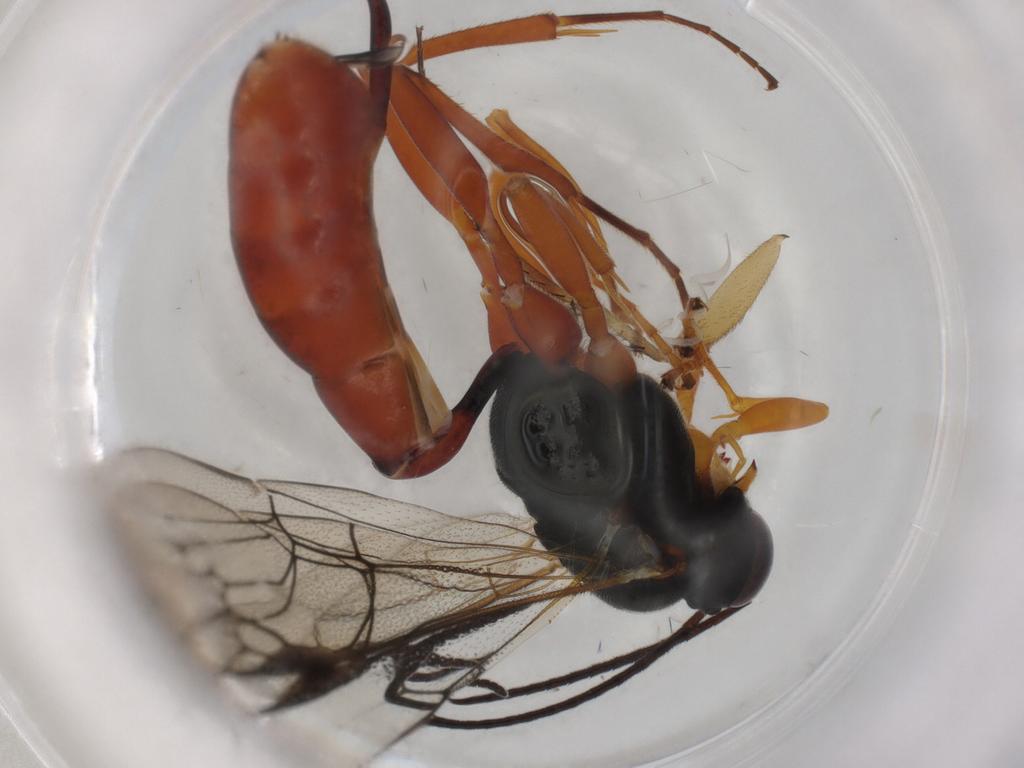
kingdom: Animalia
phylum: Arthropoda
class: Insecta
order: Hymenoptera
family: Ichneumonidae
